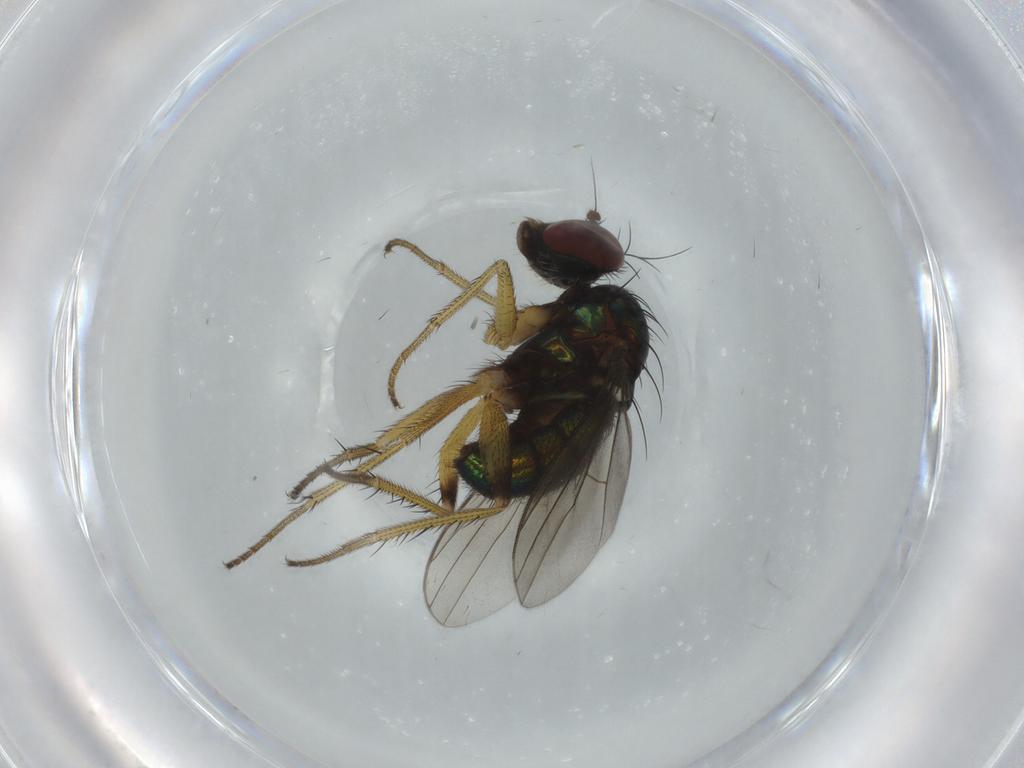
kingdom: Animalia
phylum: Arthropoda
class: Insecta
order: Diptera
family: Dolichopodidae
